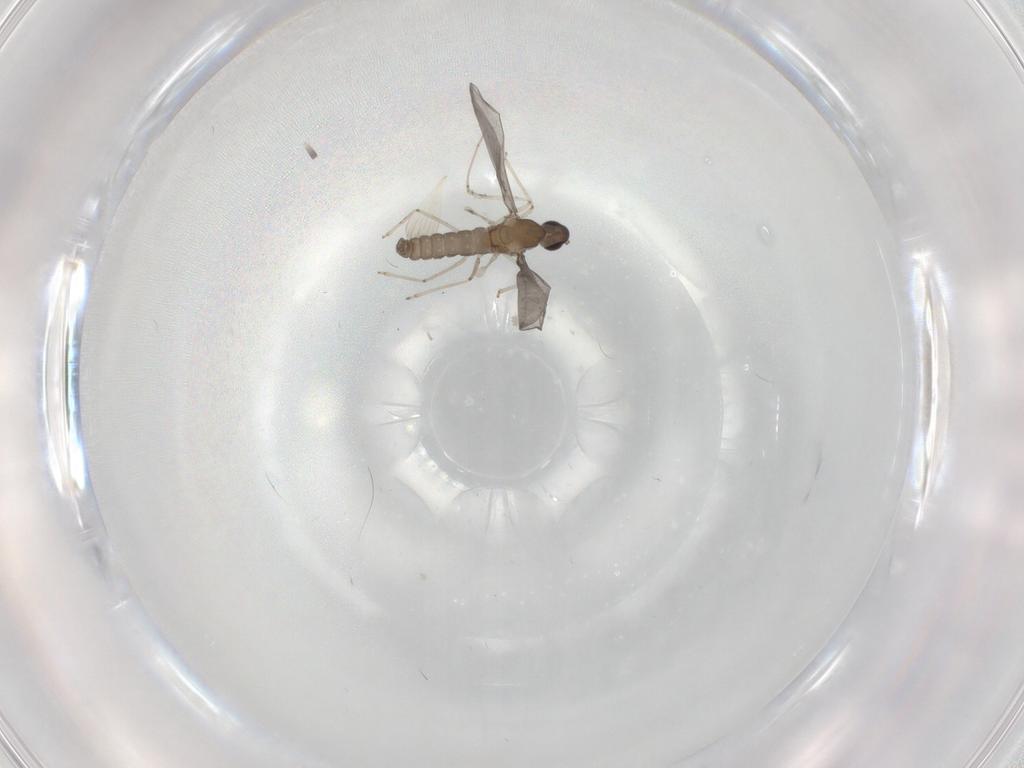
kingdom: Animalia
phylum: Arthropoda
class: Insecta
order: Diptera
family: Cecidomyiidae
